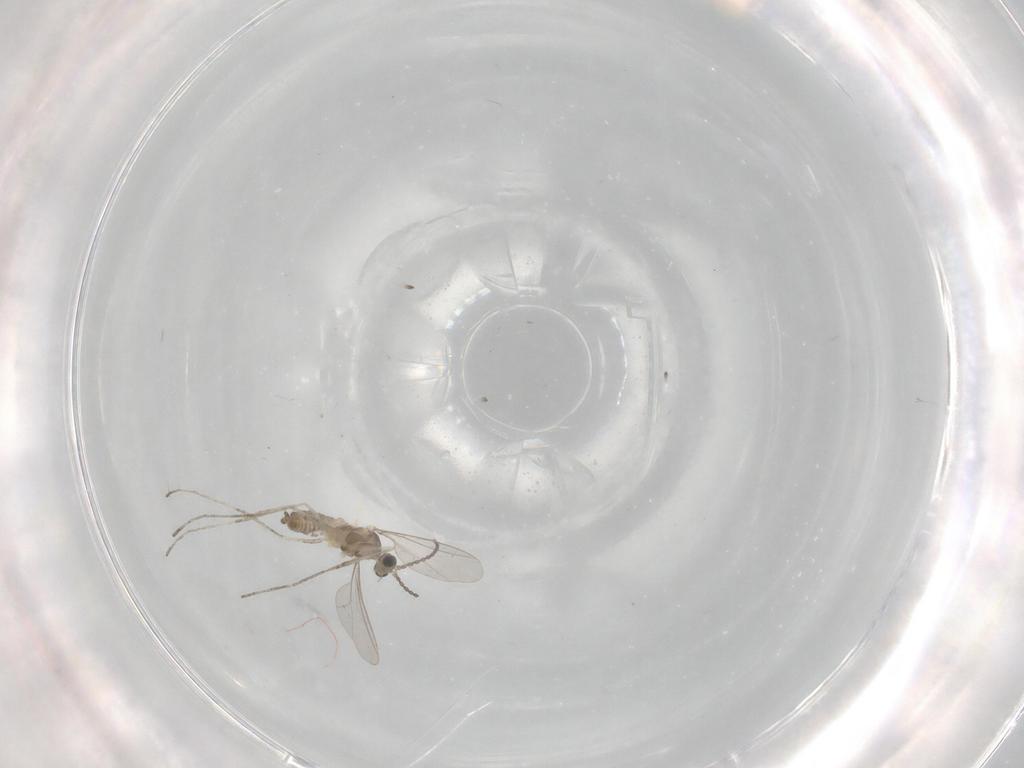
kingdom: Animalia
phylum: Arthropoda
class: Insecta
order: Diptera
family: Cecidomyiidae
